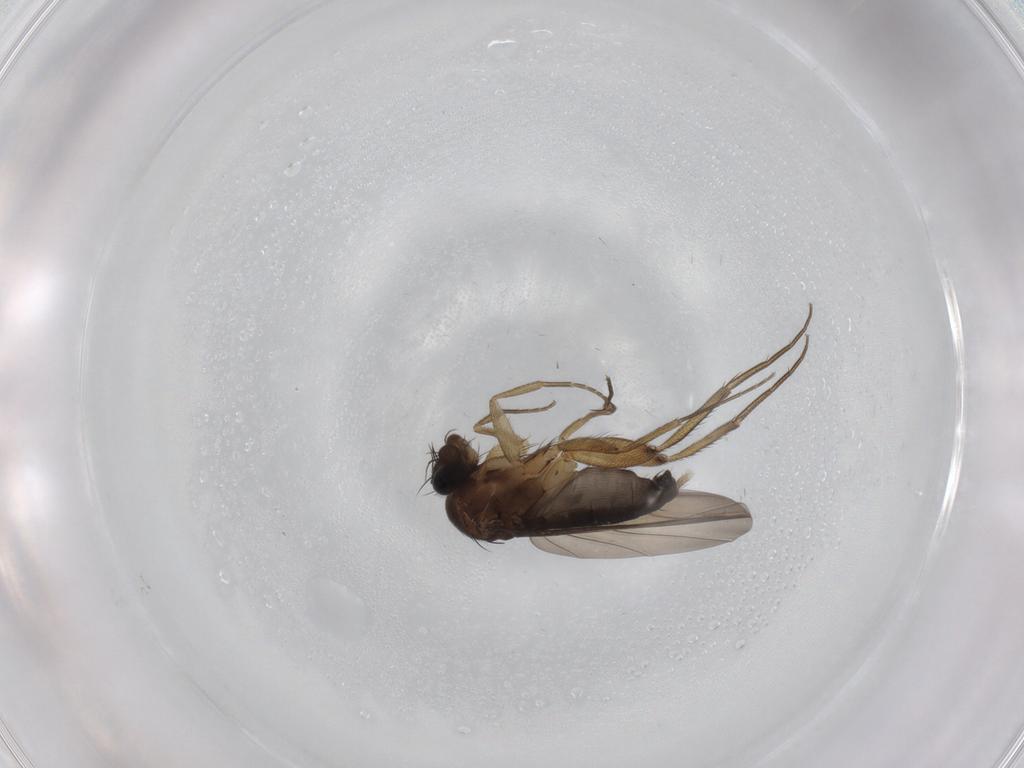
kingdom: Animalia
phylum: Arthropoda
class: Insecta
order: Diptera
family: Phoridae
